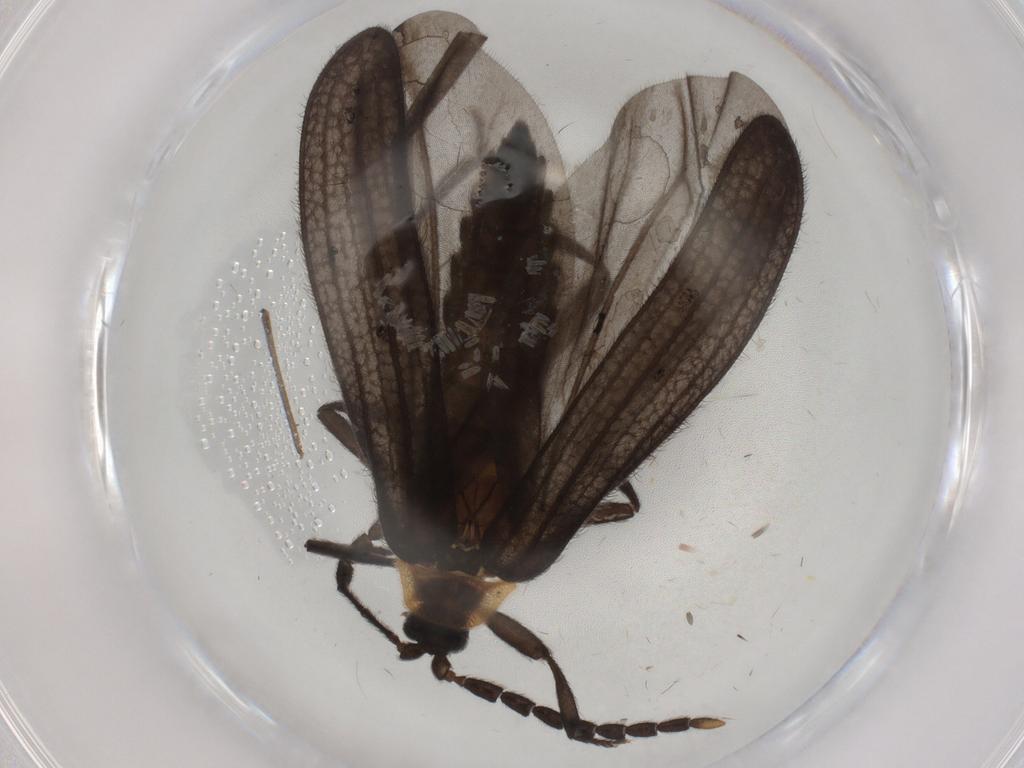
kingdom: Animalia
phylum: Arthropoda
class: Insecta
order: Coleoptera
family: Lycidae
